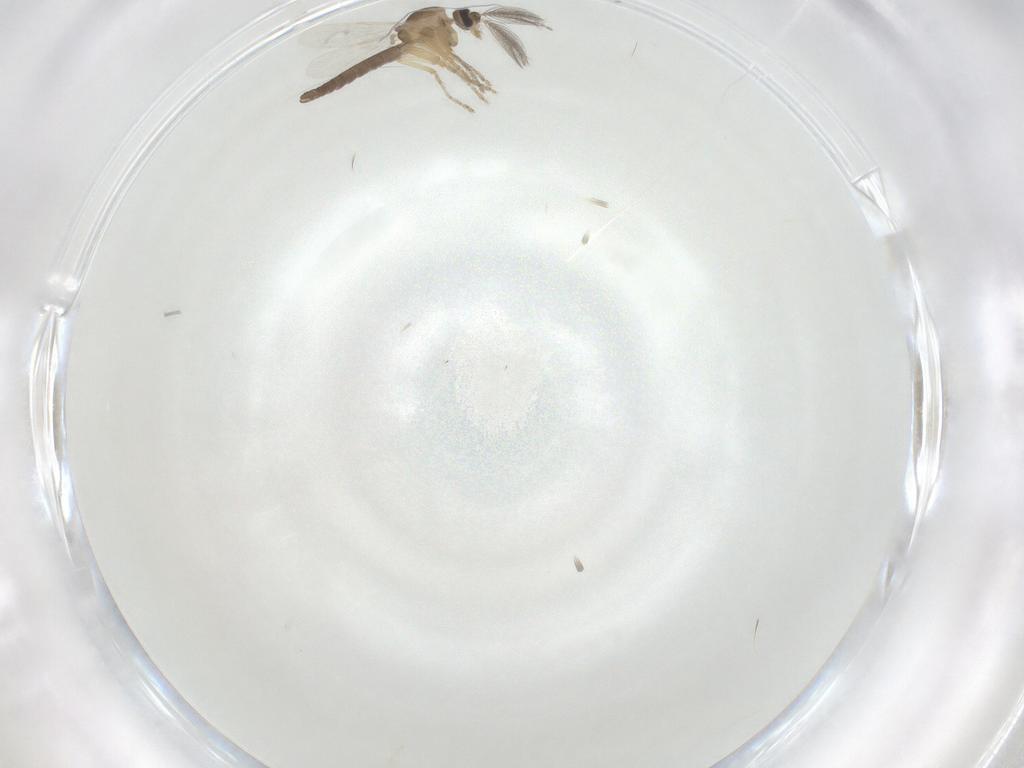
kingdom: Animalia
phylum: Arthropoda
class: Insecta
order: Diptera
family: Ceratopogonidae
